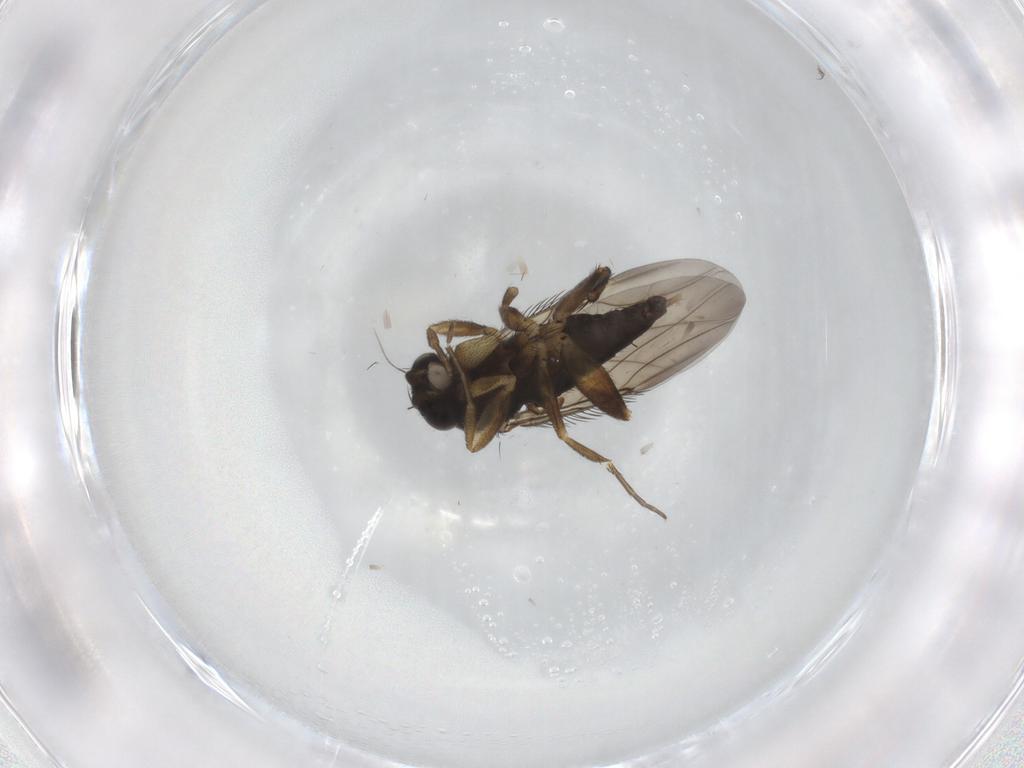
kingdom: Animalia
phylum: Arthropoda
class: Insecta
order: Diptera
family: Phoridae
